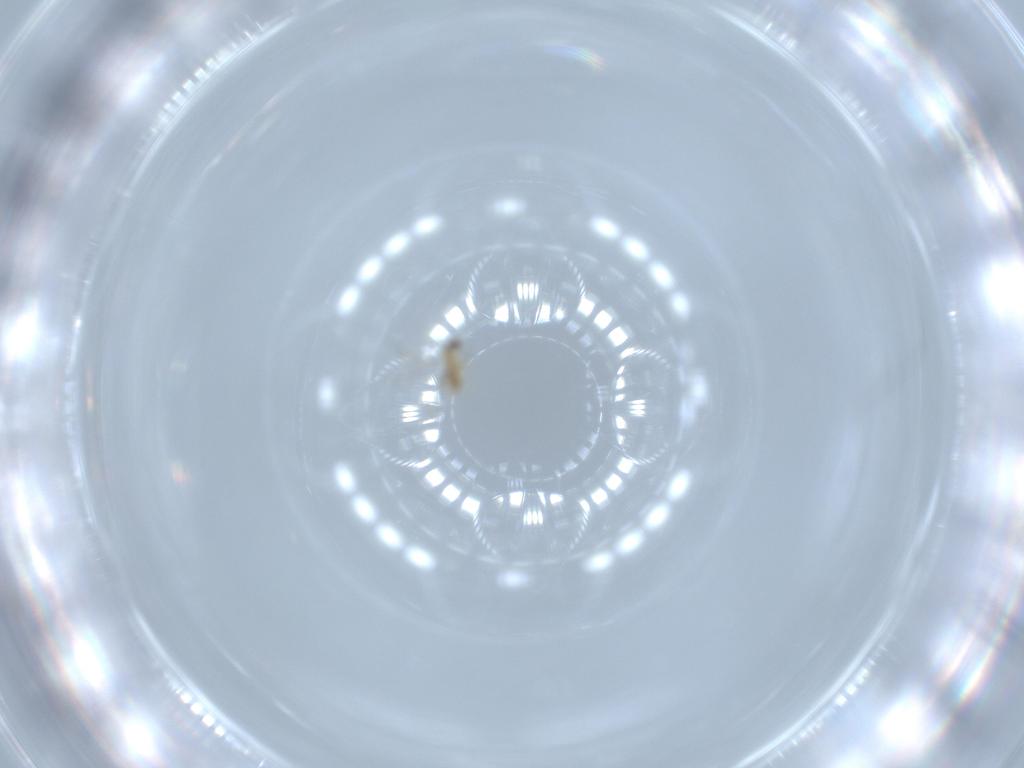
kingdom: Animalia
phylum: Arthropoda
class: Insecta
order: Hymenoptera
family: Mymaridae
